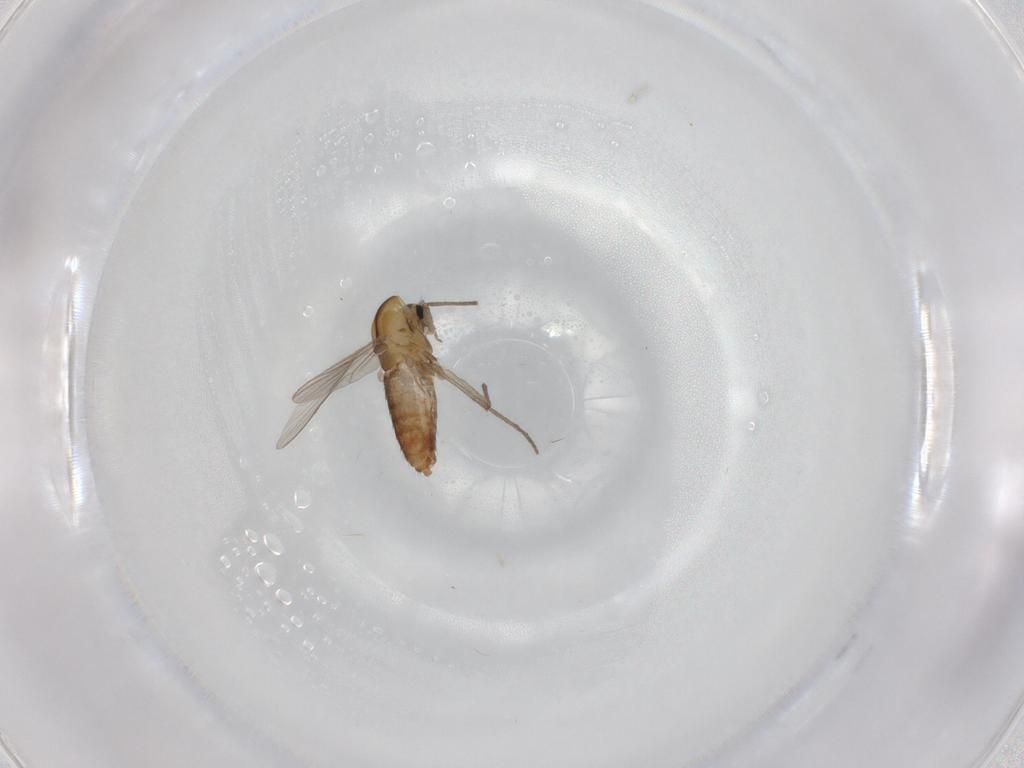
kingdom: Animalia
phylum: Arthropoda
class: Insecta
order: Diptera
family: Chironomidae
